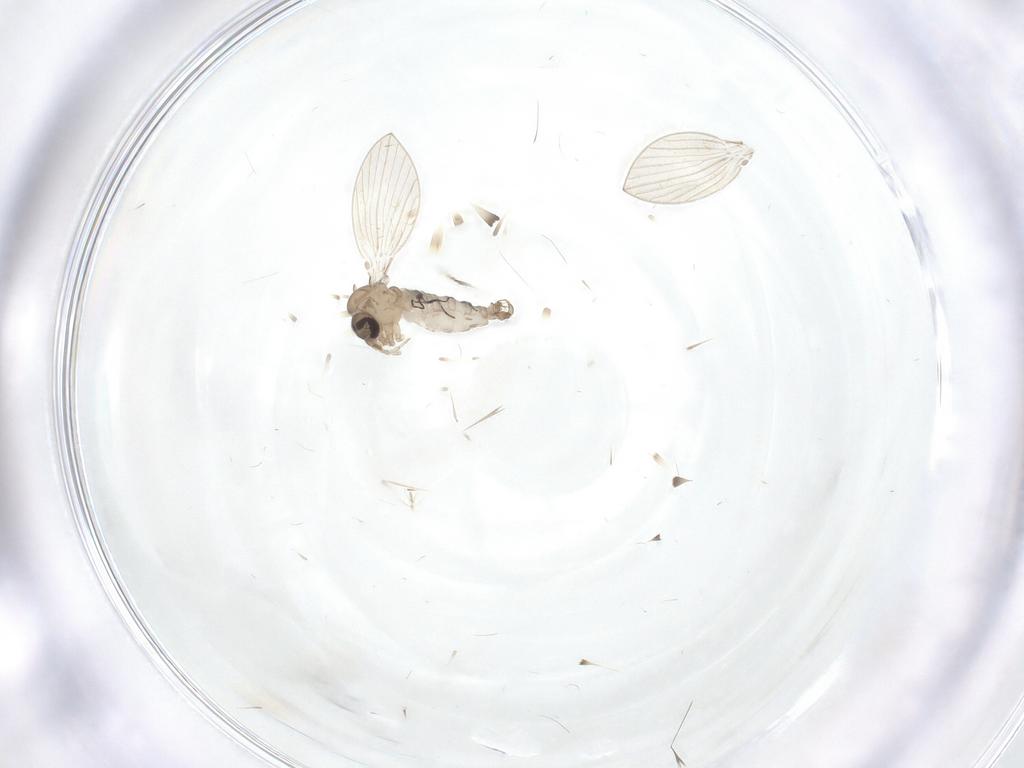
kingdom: Animalia
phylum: Arthropoda
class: Insecta
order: Diptera
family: Psychodidae
